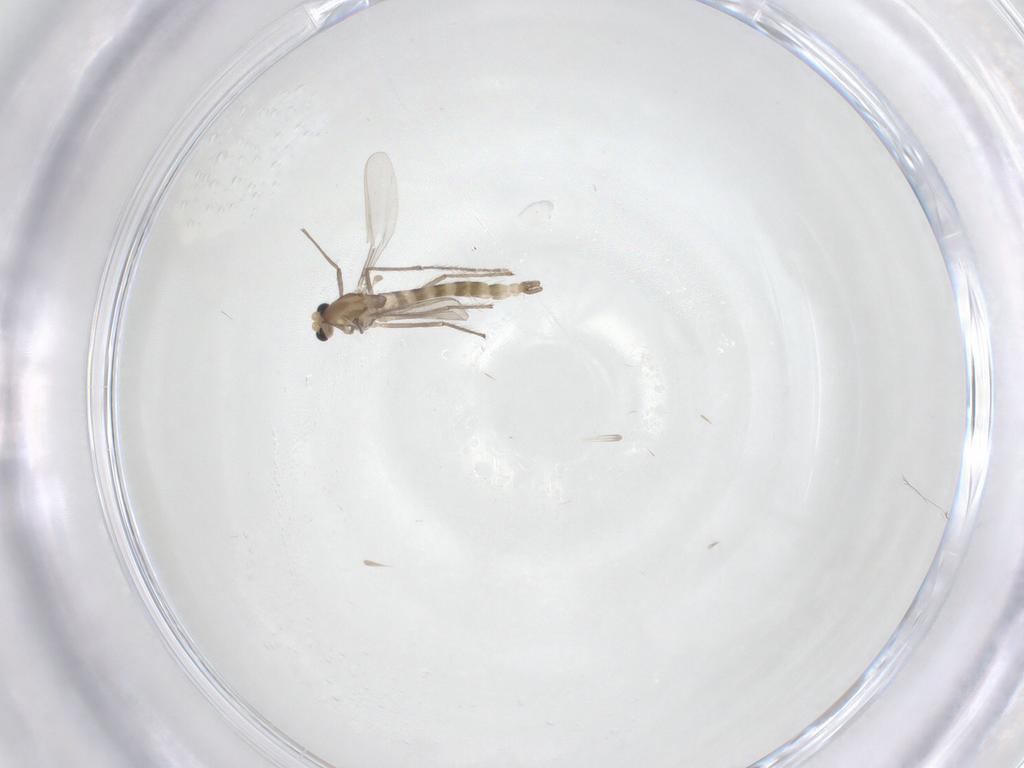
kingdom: Animalia
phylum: Arthropoda
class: Insecta
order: Diptera
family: Chironomidae
